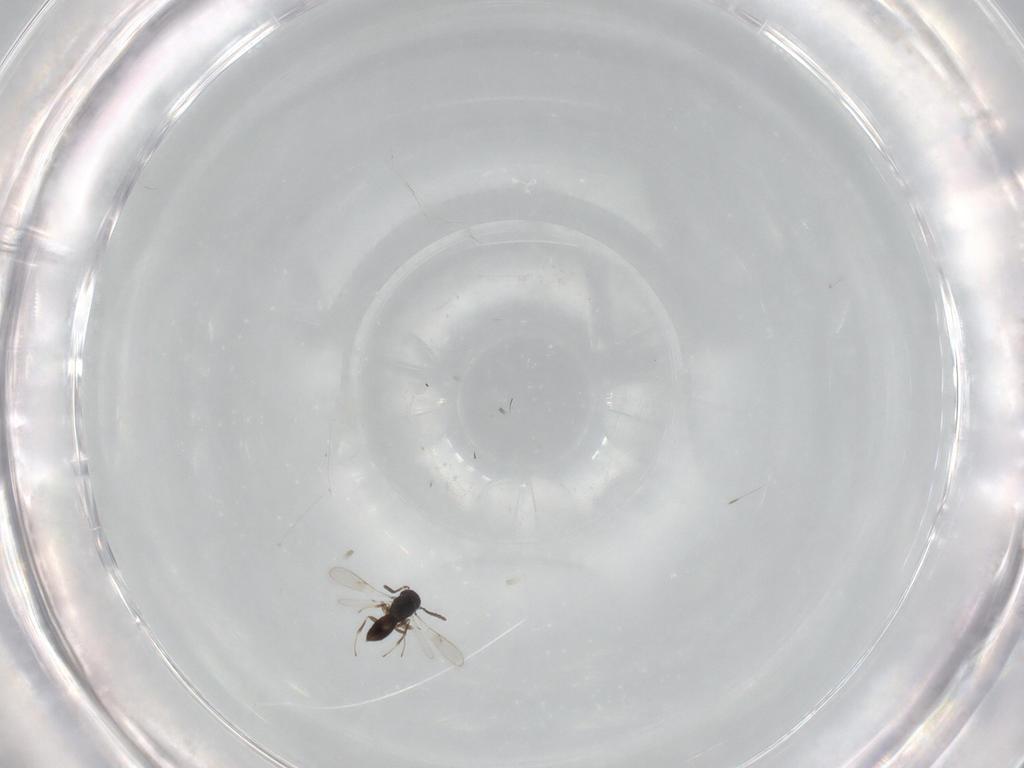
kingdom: Animalia
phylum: Arthropoda
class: Insecta
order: Hymenoptera
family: Scelionidae
